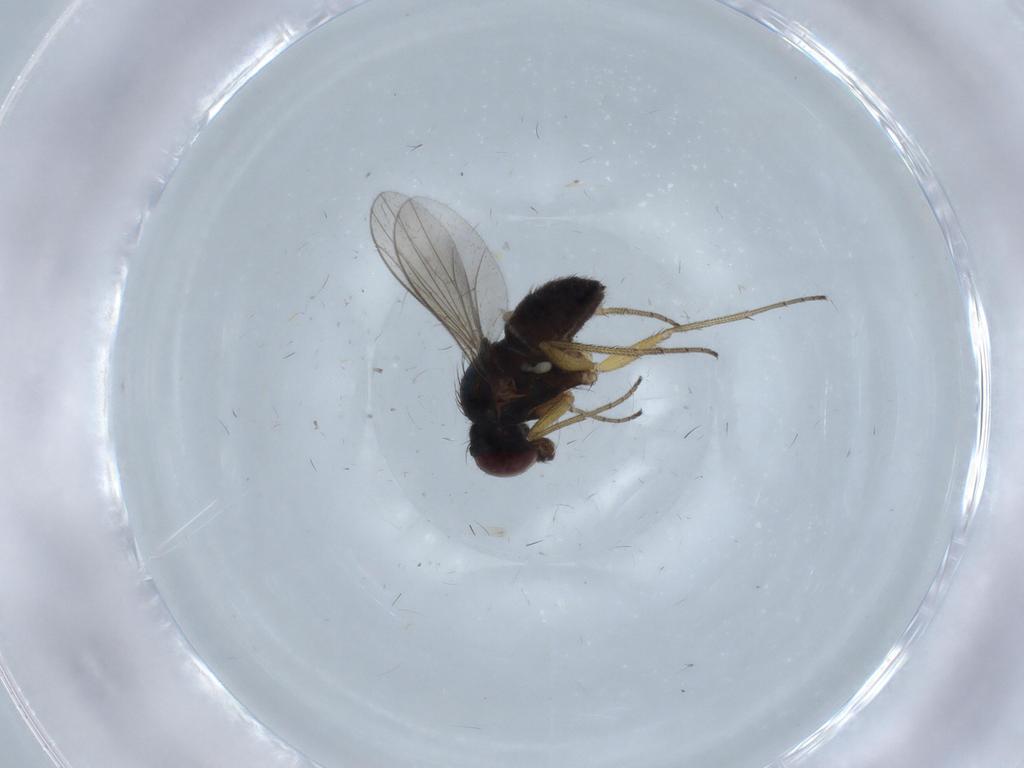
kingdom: Animalia
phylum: Arthropoda
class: Insecta
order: Diptera
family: Dolichopodidae
